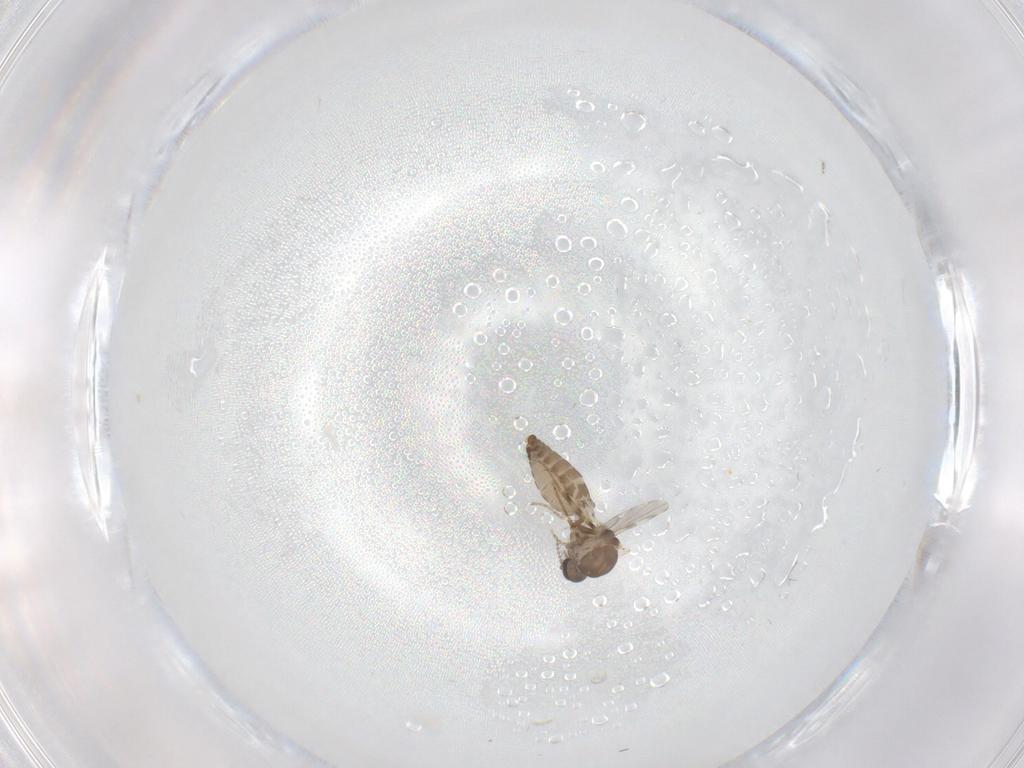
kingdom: Animalia
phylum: Arthropoda
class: Insecta
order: Diptera
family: Ceratopogonidae
